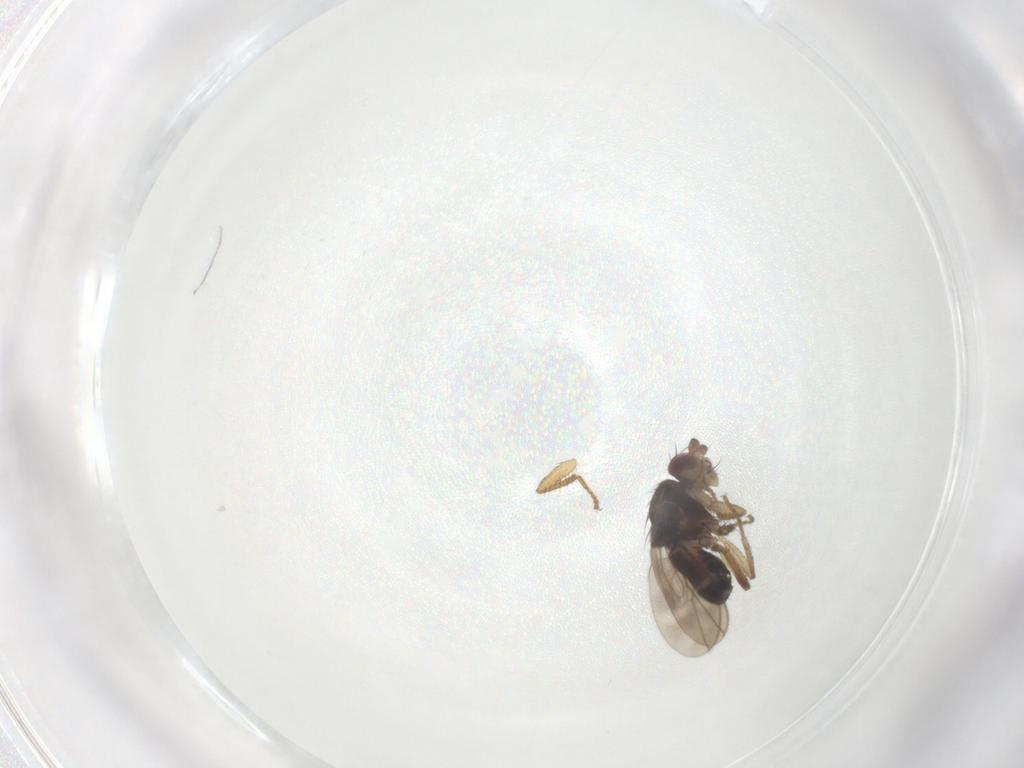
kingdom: Animalia
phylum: Arthropoda
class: Insecta
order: Diptera
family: Sphaeroceridae
